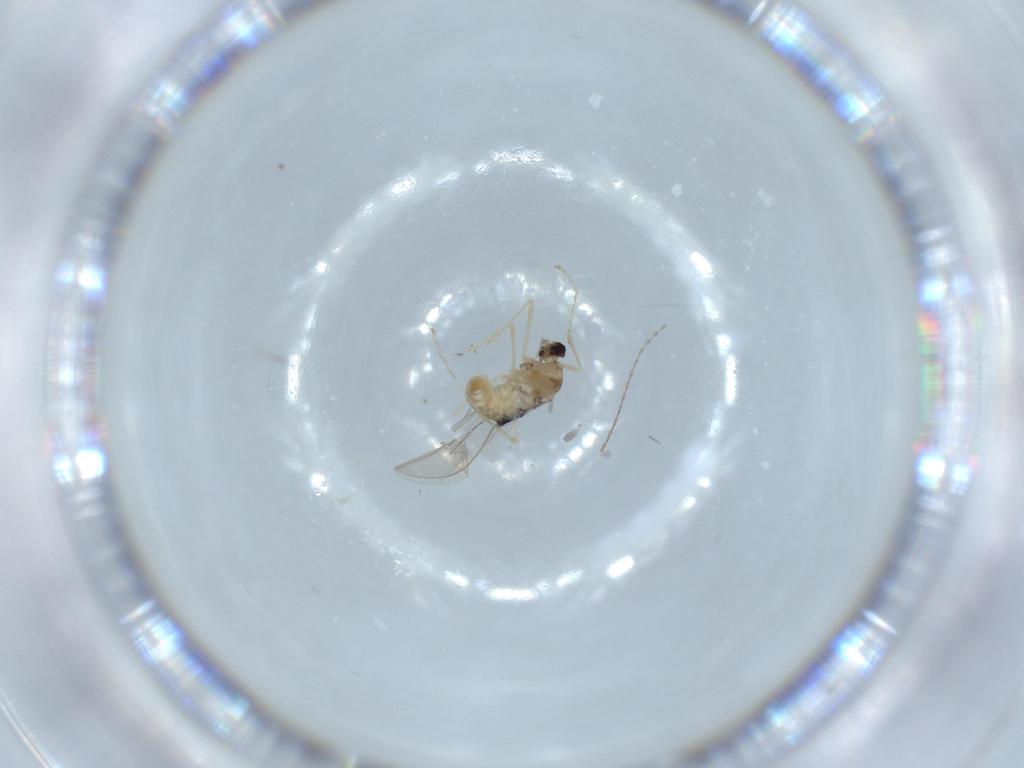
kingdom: Animalia
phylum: Arthropoda
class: Insecta
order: Diptera
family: Cecidomyiidae
